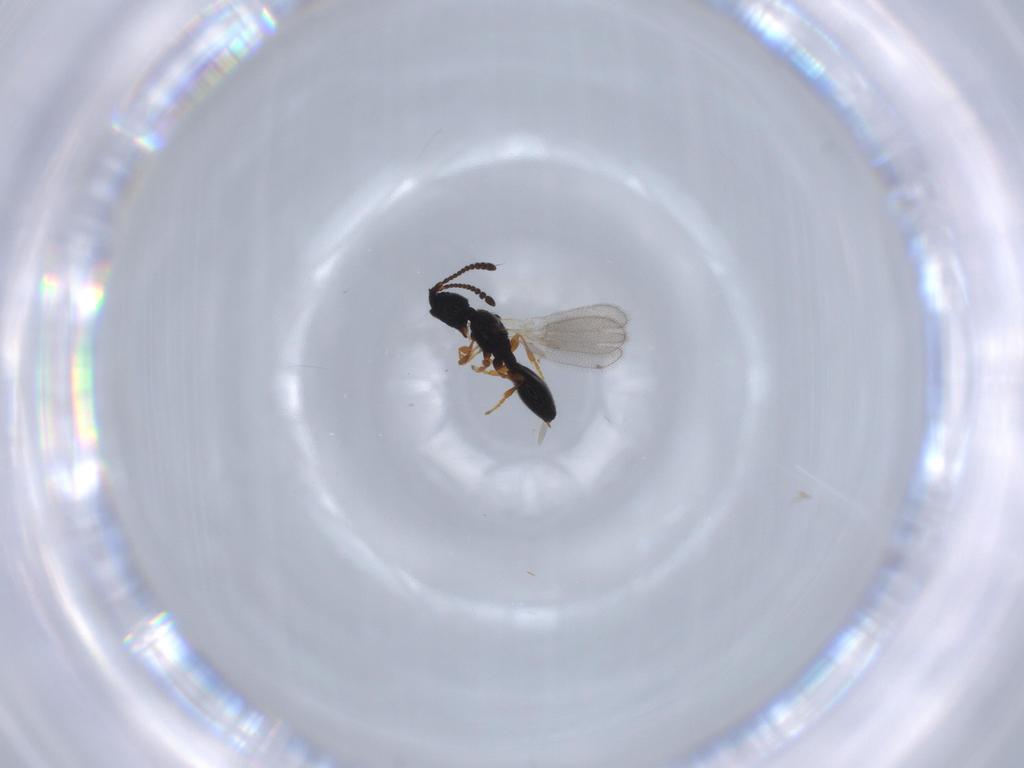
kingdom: Animalia
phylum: Arthropoda
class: Insecta
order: Hymenoptera
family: Diapriidae
